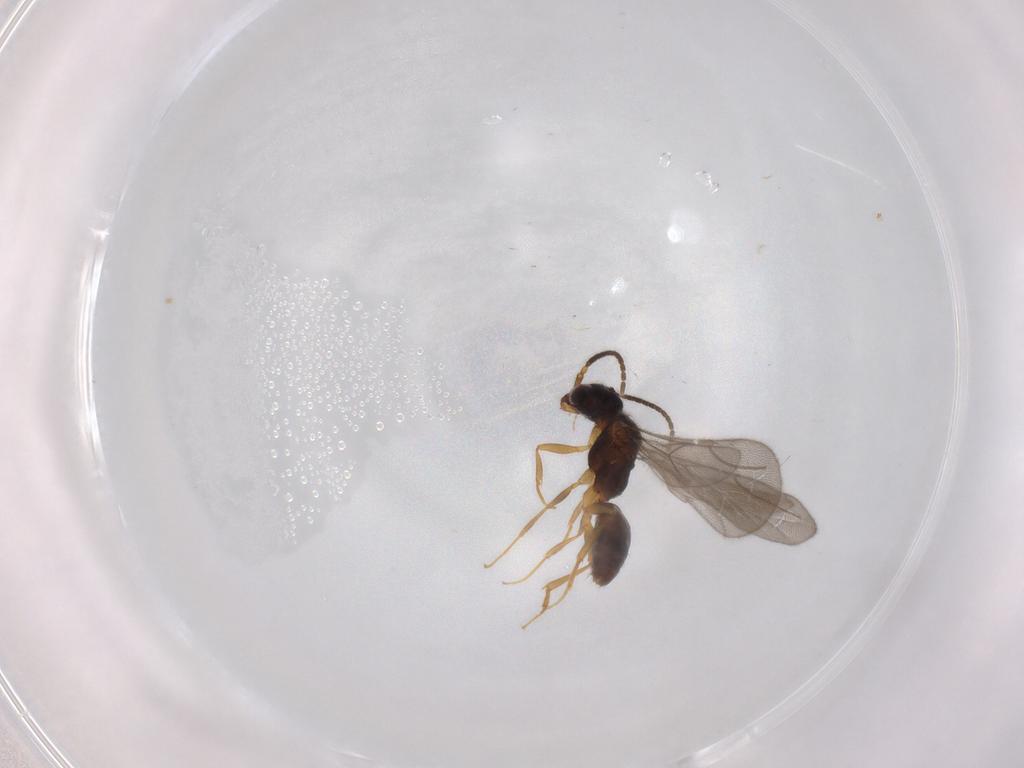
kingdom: Animalia
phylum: Arthropoda
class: Insecta
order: Hymenoptera
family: Bethylidae
